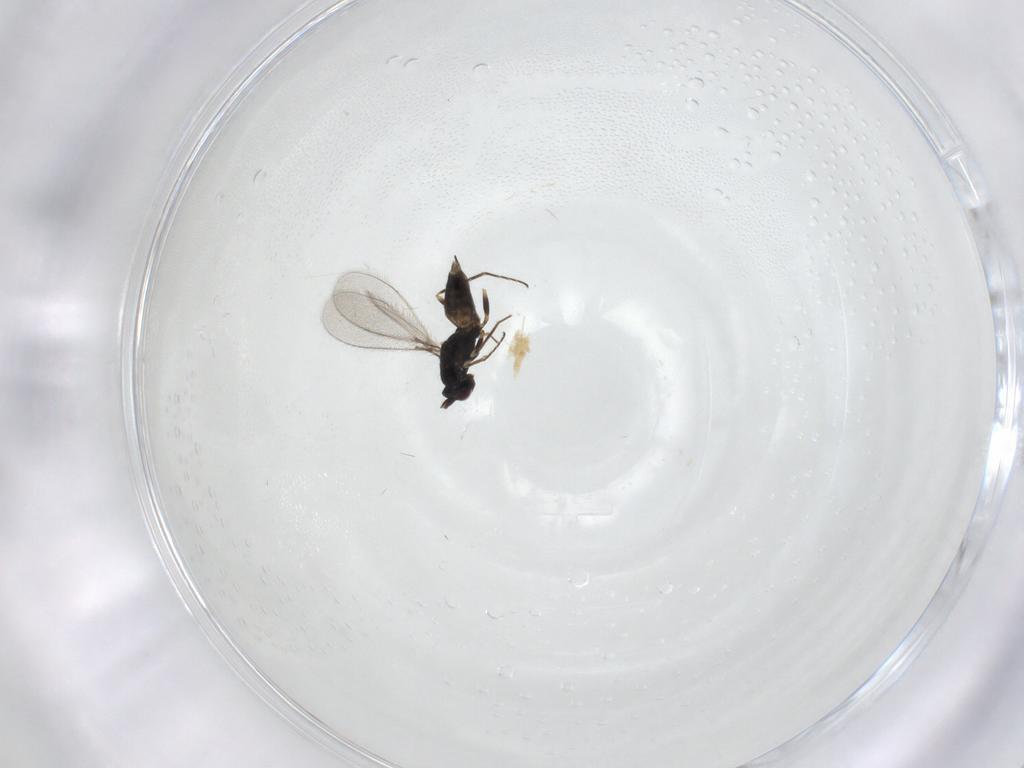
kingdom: Animalia
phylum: Arthropoda
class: Insecta
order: Hymenoptera
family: Mymaridae
